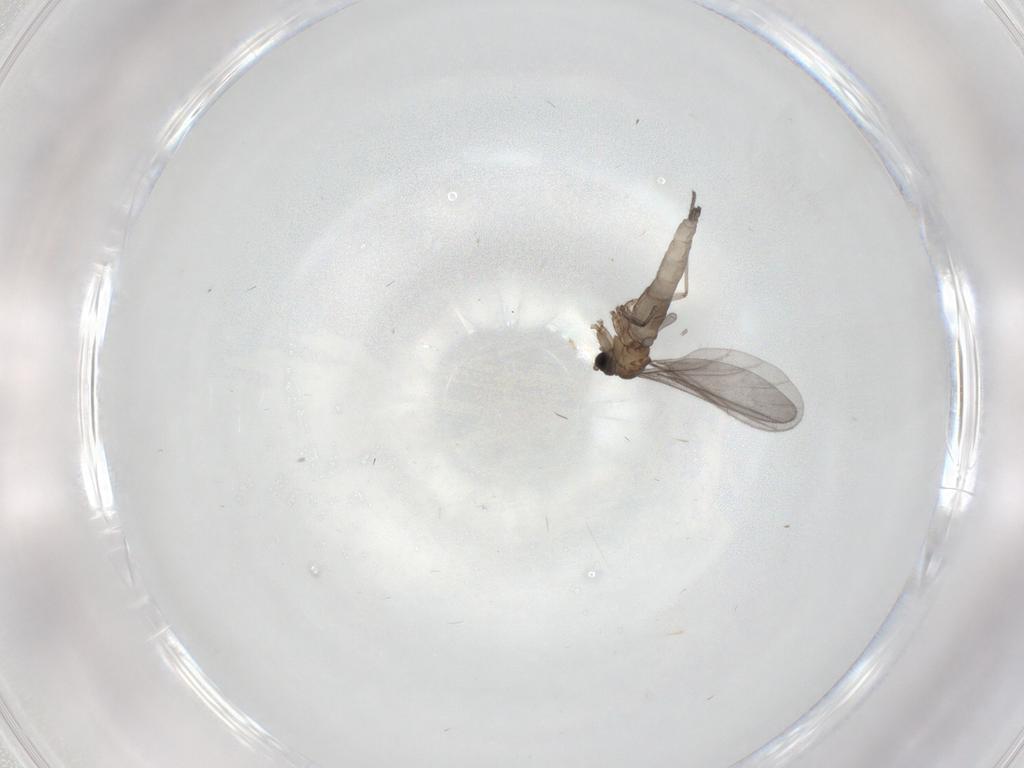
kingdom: Animalia
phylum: Arthropoda
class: Insecta
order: Diptera
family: Sciaridae
